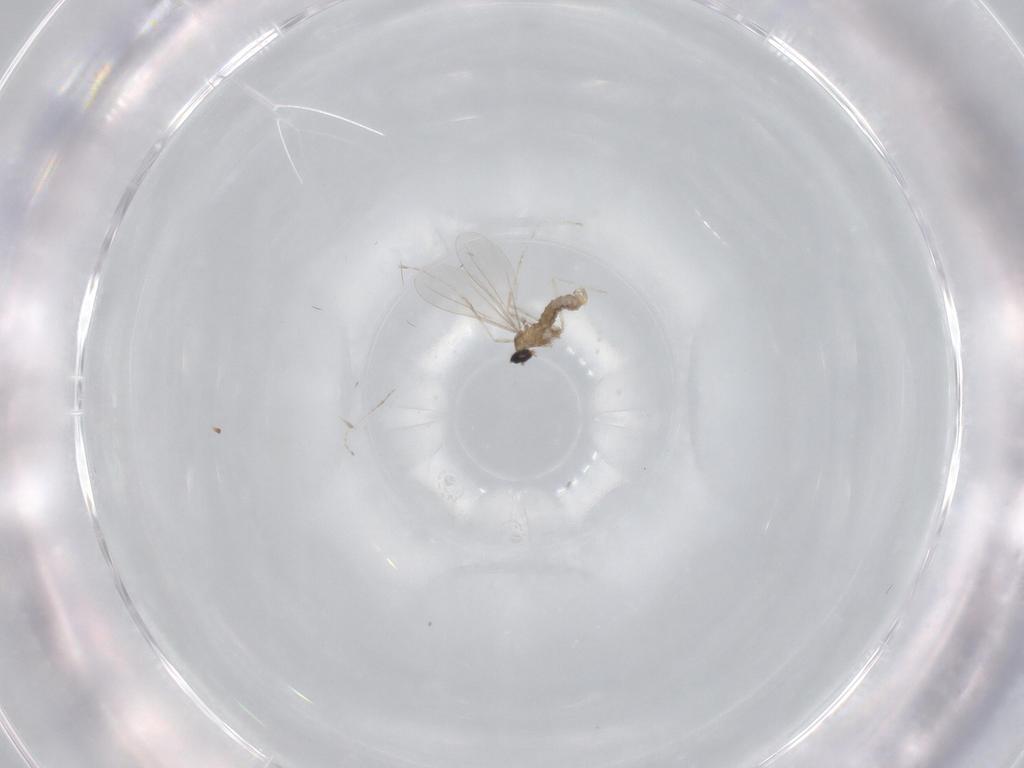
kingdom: Animalia
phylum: Arthropoda
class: Insecta
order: Diptera
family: Cecidomyiidae
